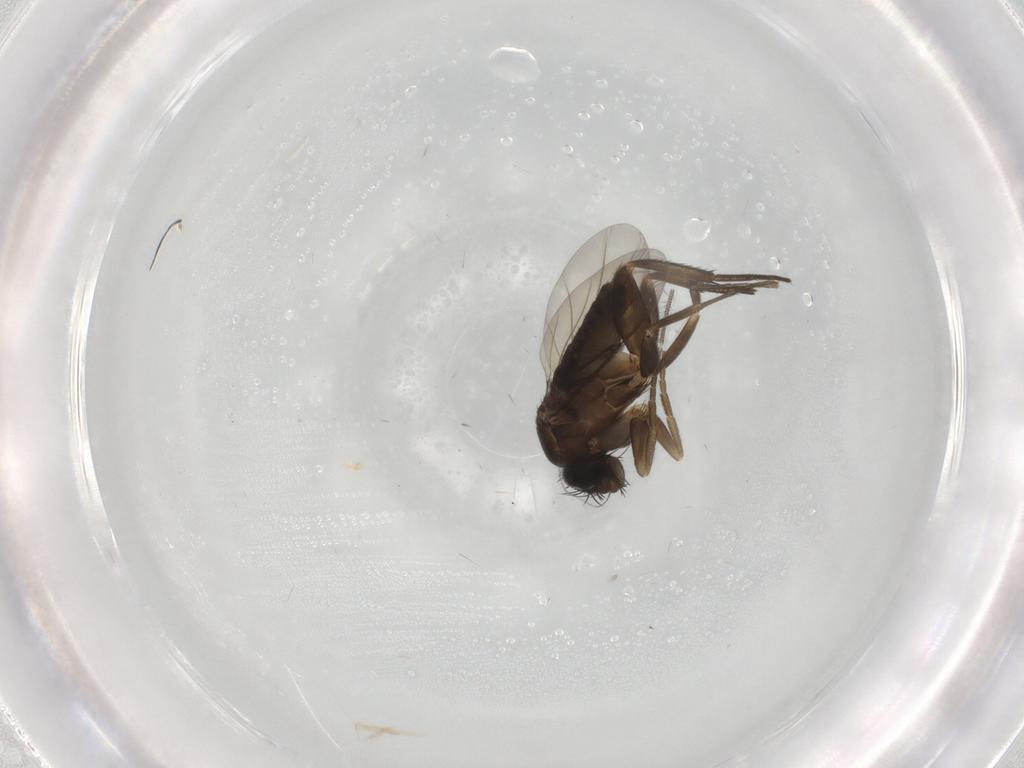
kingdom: Animalia
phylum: Arthropoda
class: Insecta
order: Diptera
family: Phoridae
